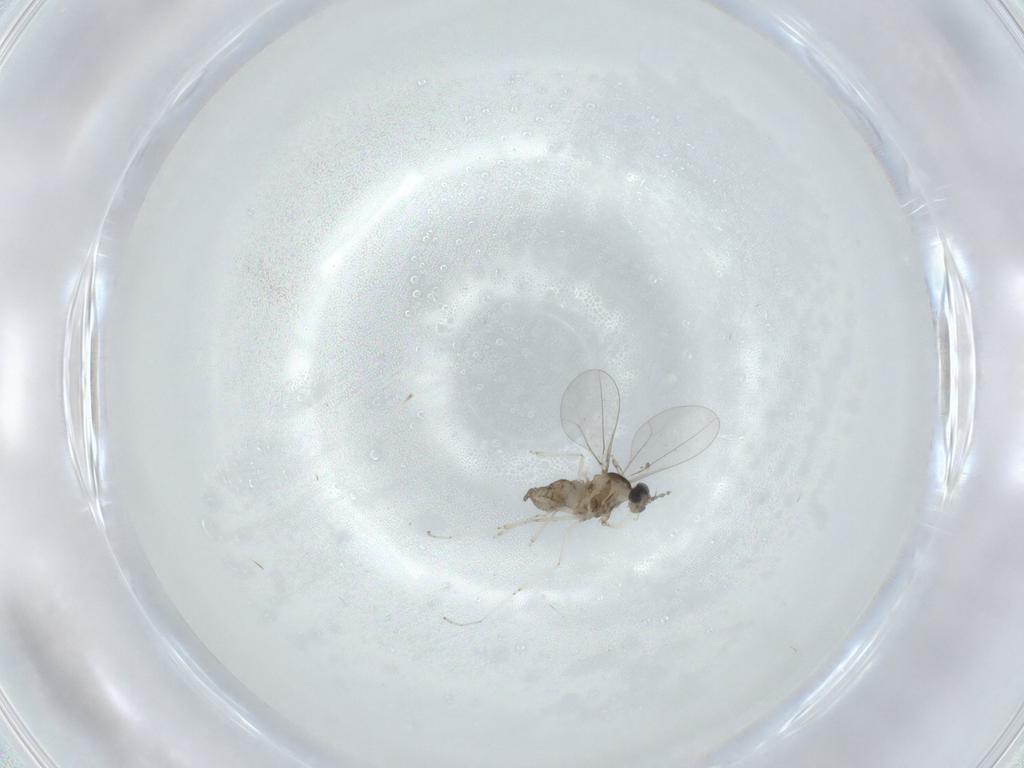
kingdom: Animalia
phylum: Arthropoda
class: Insecta
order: Diptera
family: Cecidomyiidae
